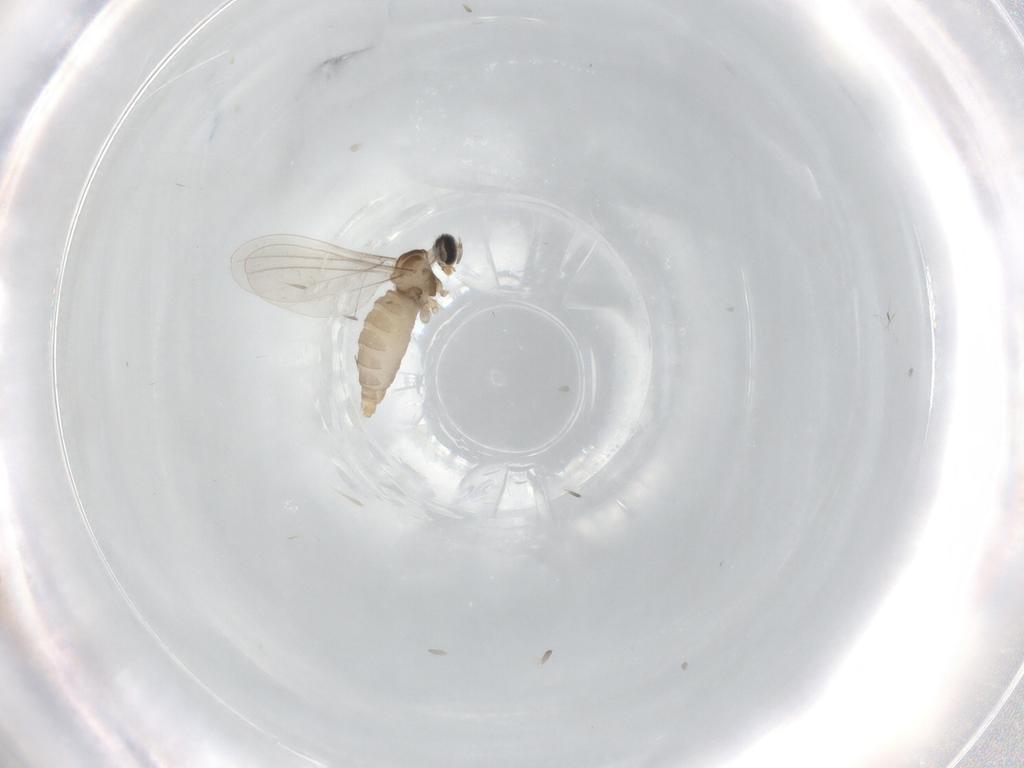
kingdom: Animalia
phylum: Arthropoda
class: Insecta
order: Diptera
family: Cecidomyiidae
